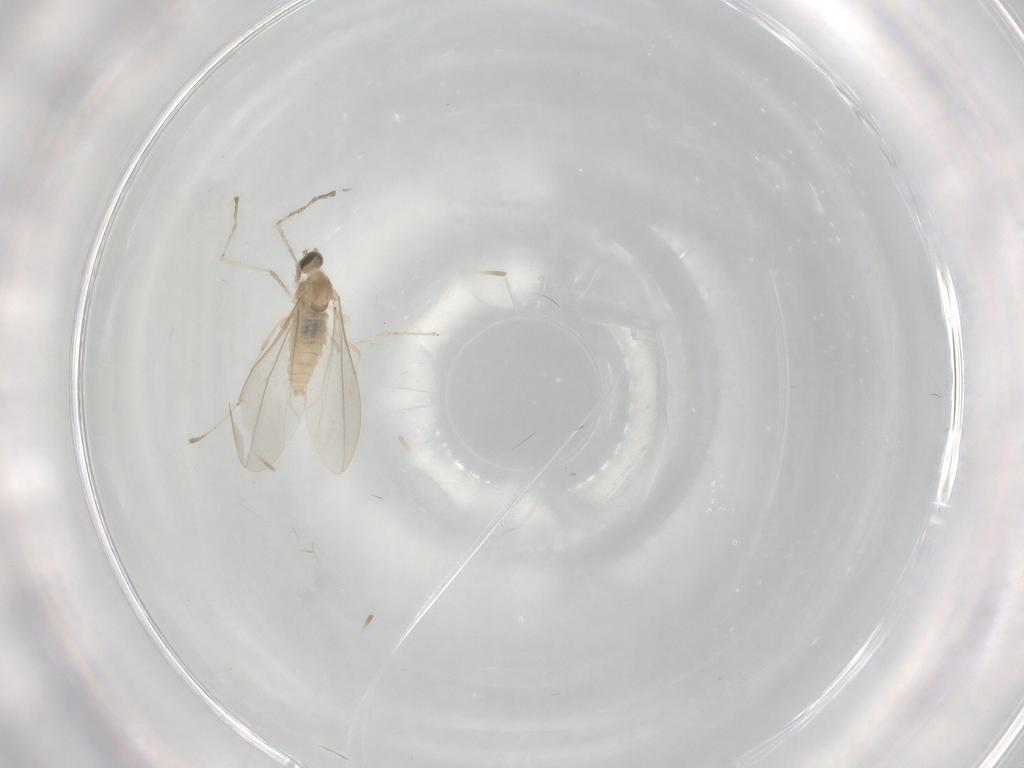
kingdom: Animalia
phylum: Arthropoda
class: Insecta
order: Diptera
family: Cecidomyiidae
